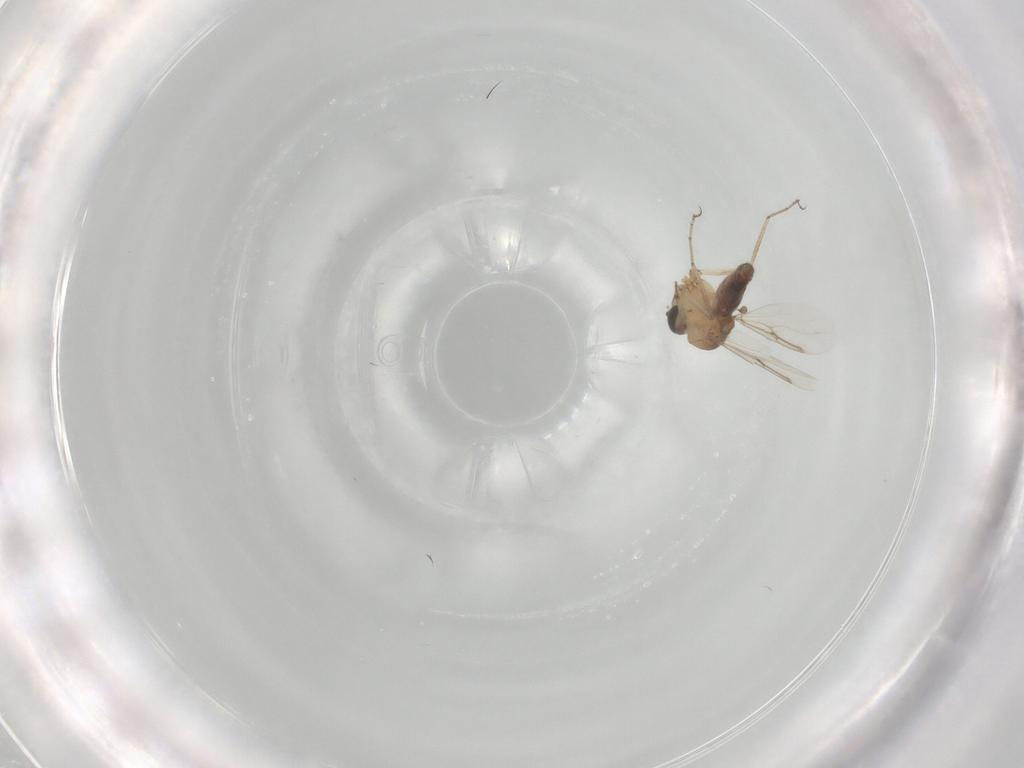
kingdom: Animalia
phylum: Arthropoda
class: Insecta
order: Diptera
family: Ceratopogonidae
